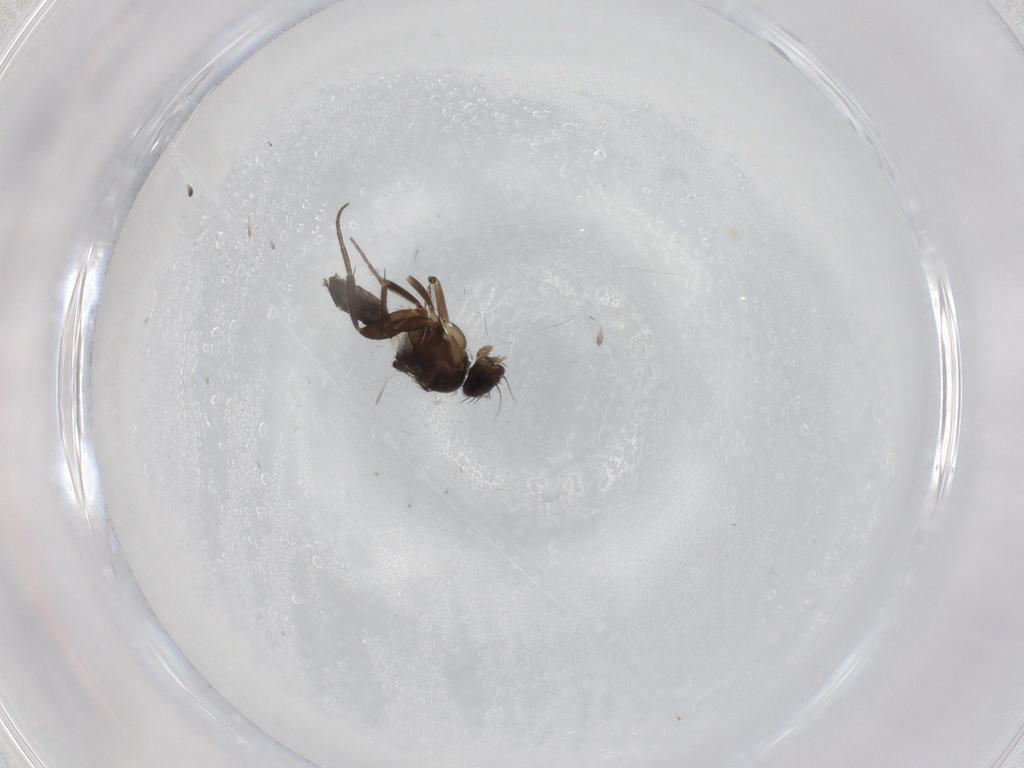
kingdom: Animalia
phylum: Arthropoda
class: Insecta
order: Diptera
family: Phoridae
